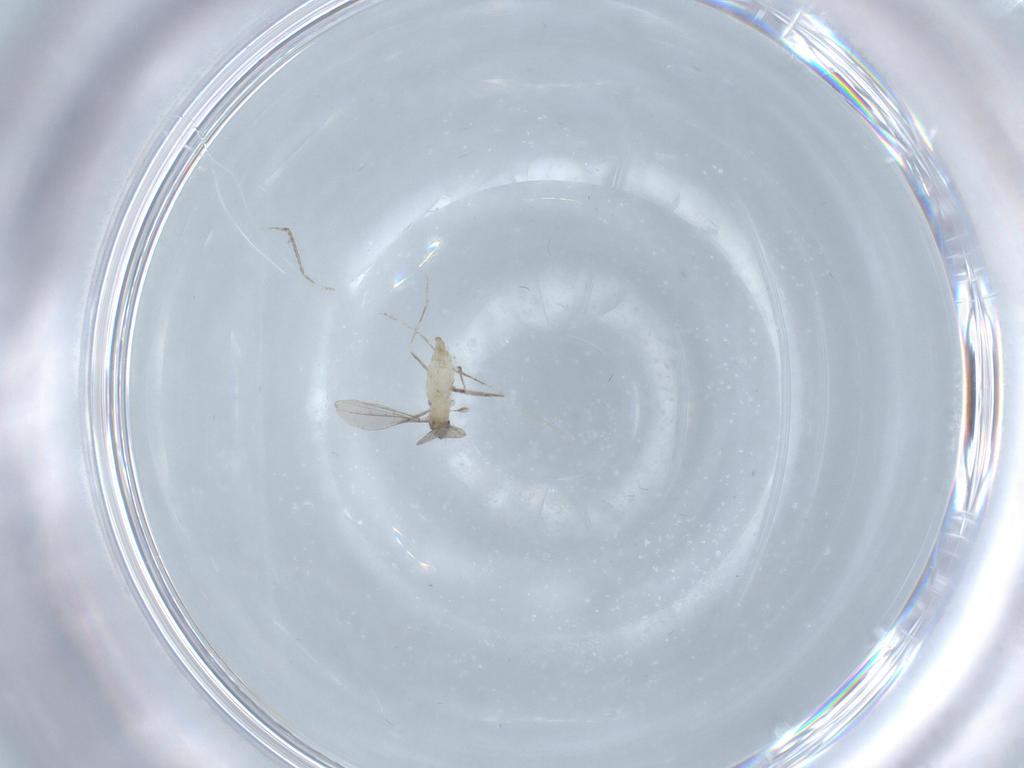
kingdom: Animalia
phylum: Arthropoda
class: Insecta
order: Diptera
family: Cecidomyiidae
